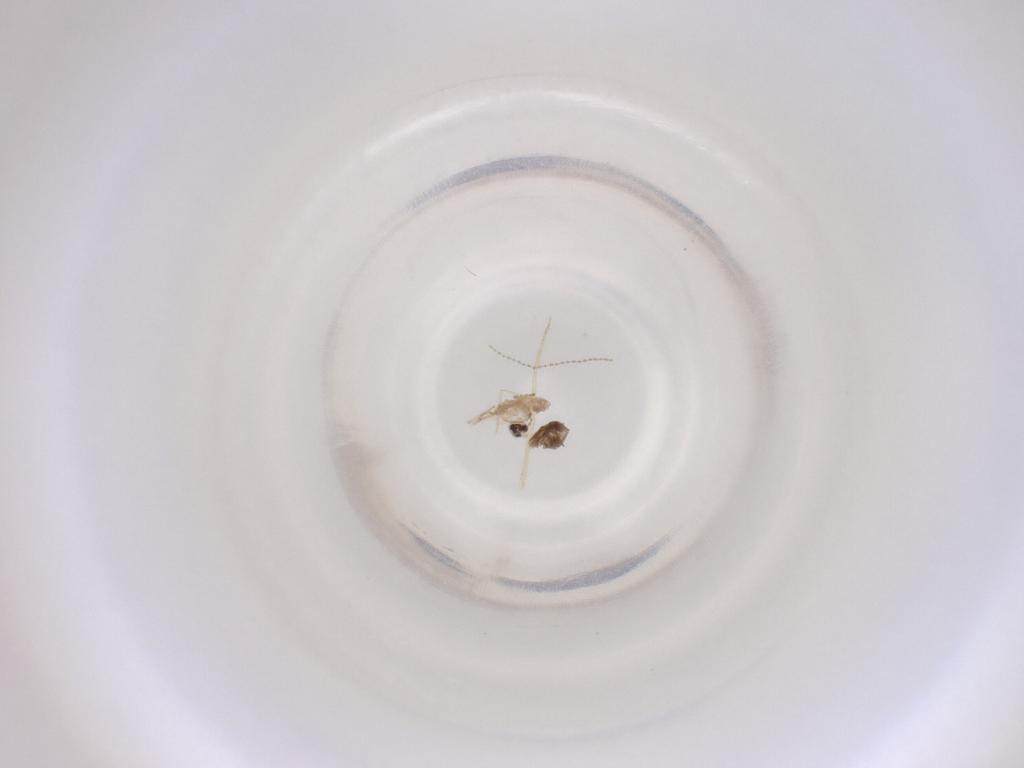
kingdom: Animalia
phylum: Arthropoda
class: Insecta
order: Diptera
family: Cecidomyiidae
